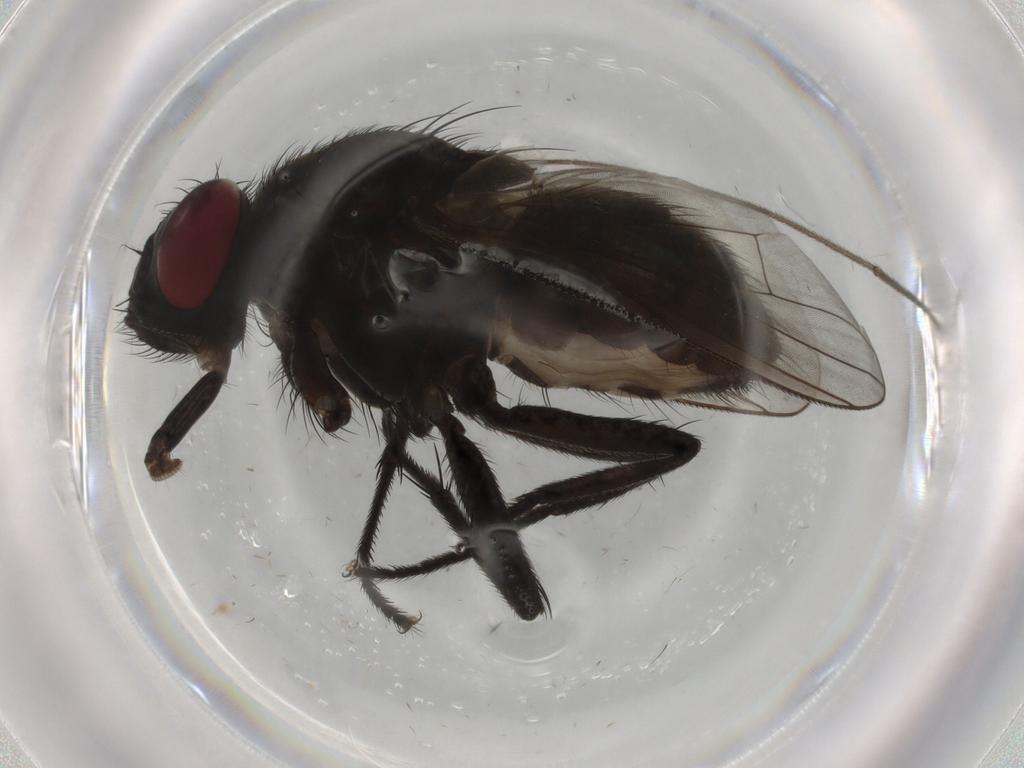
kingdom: Animalia
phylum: Arthropoda
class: Insecta
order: Diptera
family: Muscidae
